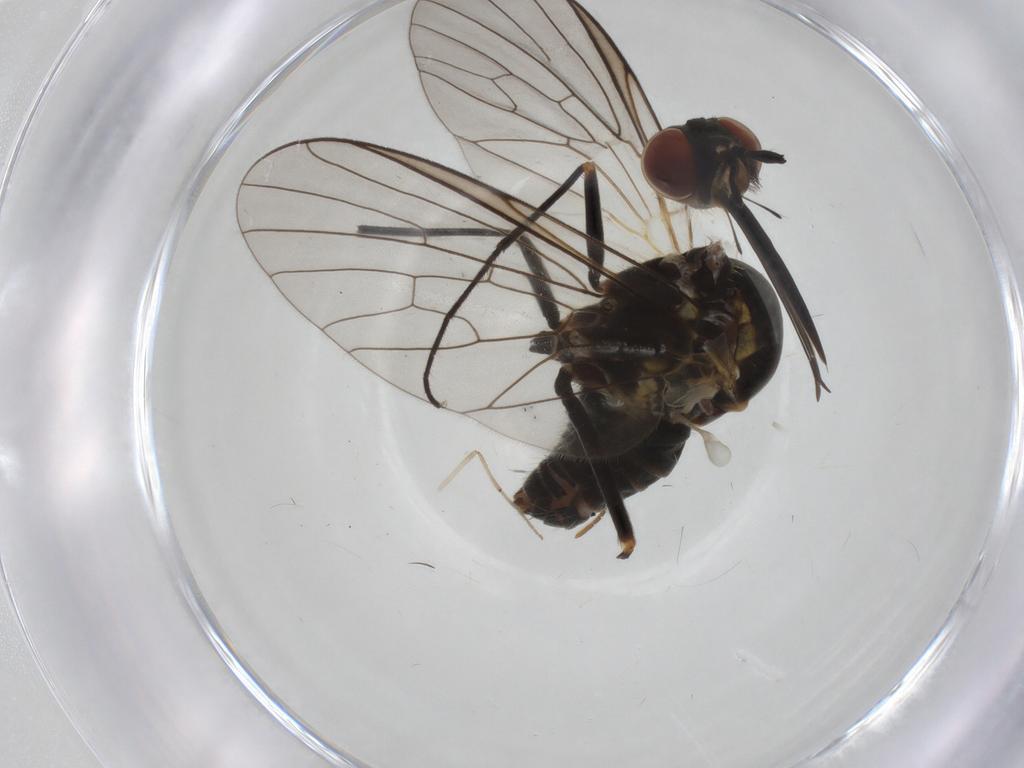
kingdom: Animalia
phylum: Arthropoda
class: Insecta
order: Diptera
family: Bombyliidae
